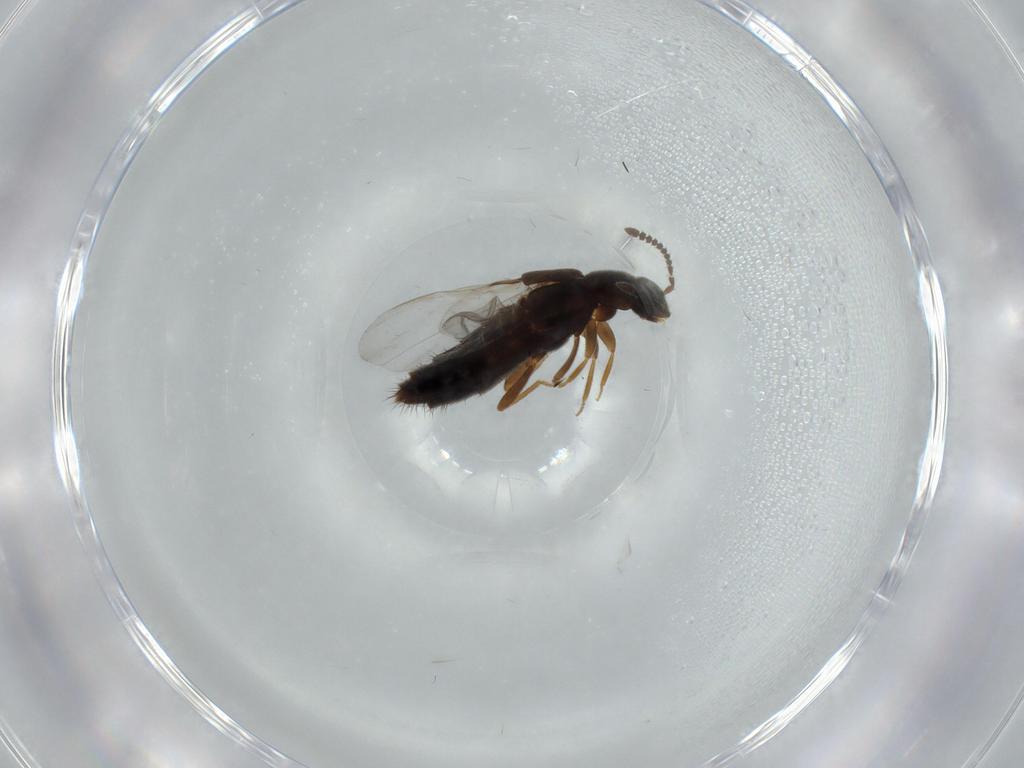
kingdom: Animalia
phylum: Arthropoda
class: Insecta
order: Coleoptera
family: Staphylinidae
